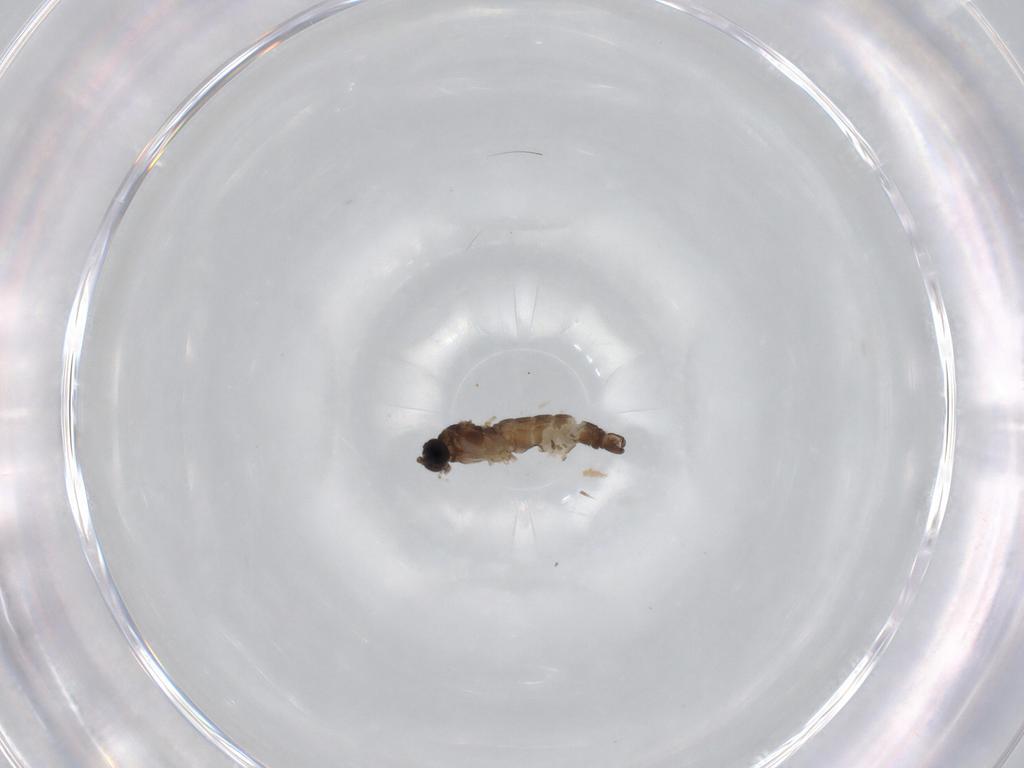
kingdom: Animalia
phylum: Arthropoda
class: Insecta
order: Diptera
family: Sciaridae
